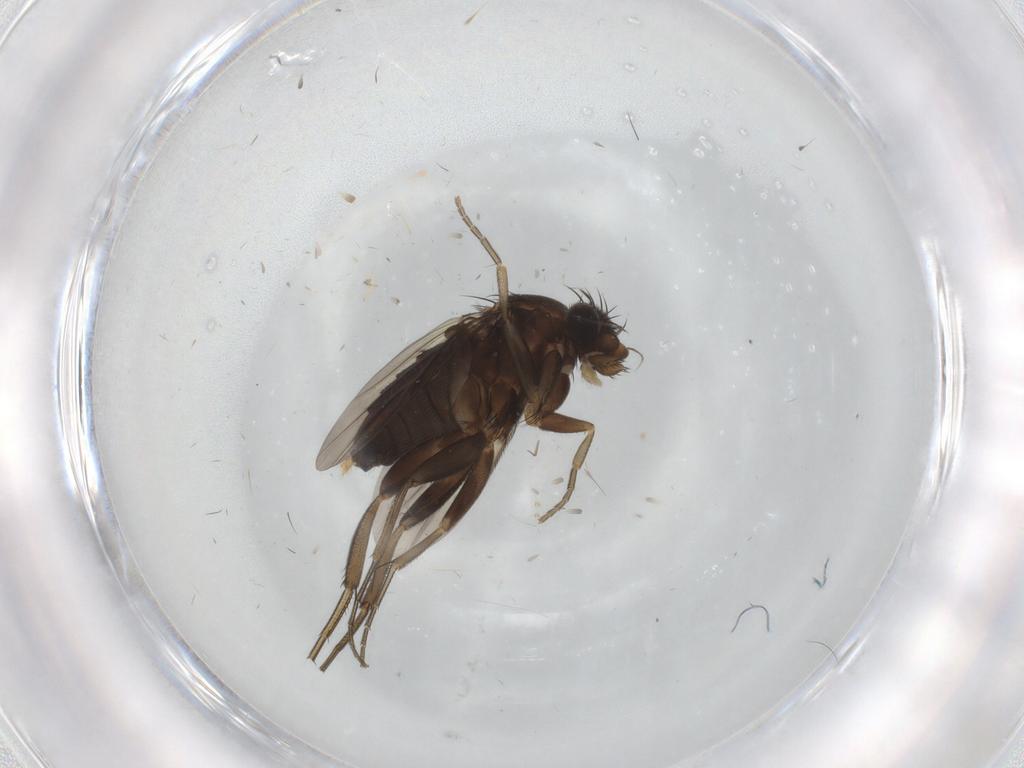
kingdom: Animalia
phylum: Arthropoda
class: Insecta
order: Diptera
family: Phoridae
